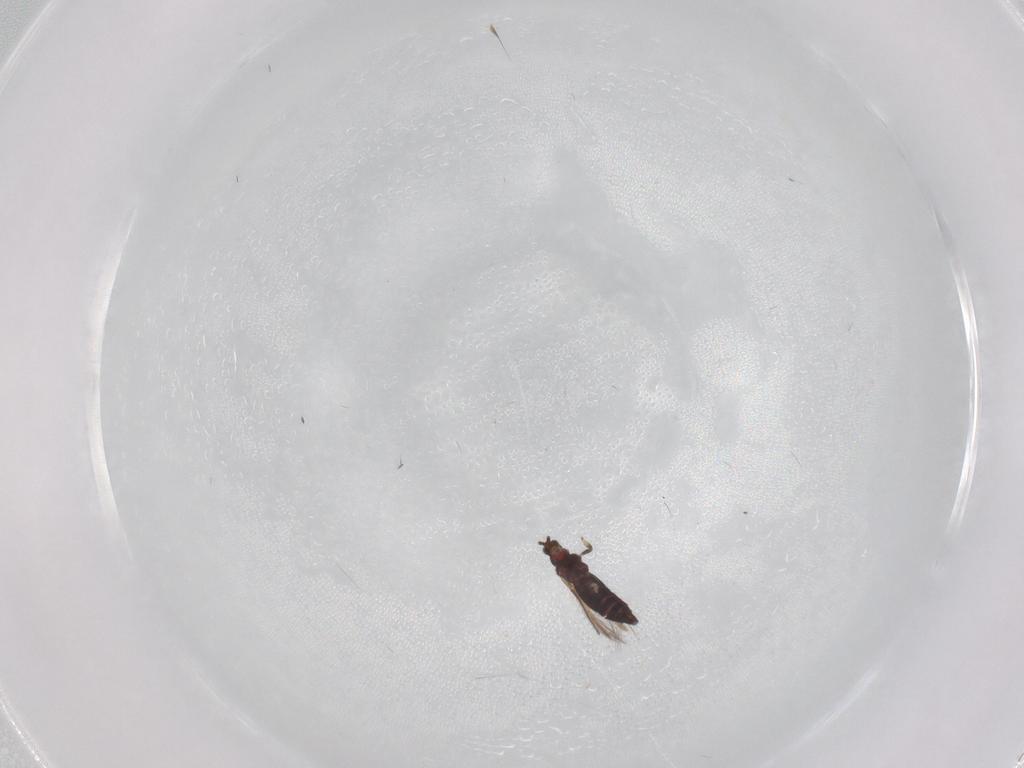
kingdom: Animalia
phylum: Arthropoda
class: Insecta
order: Thysanoptera
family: Thripidae
